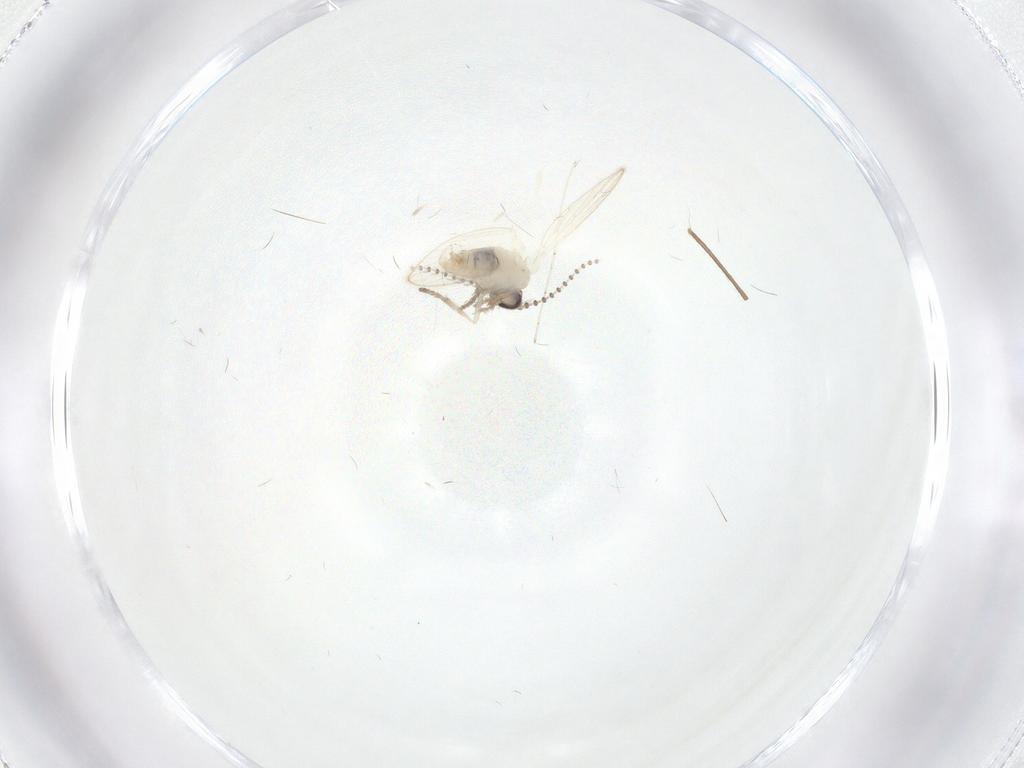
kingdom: Animalia
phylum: Arthropoda
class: Insecta
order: Diptera
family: Psychodidae
